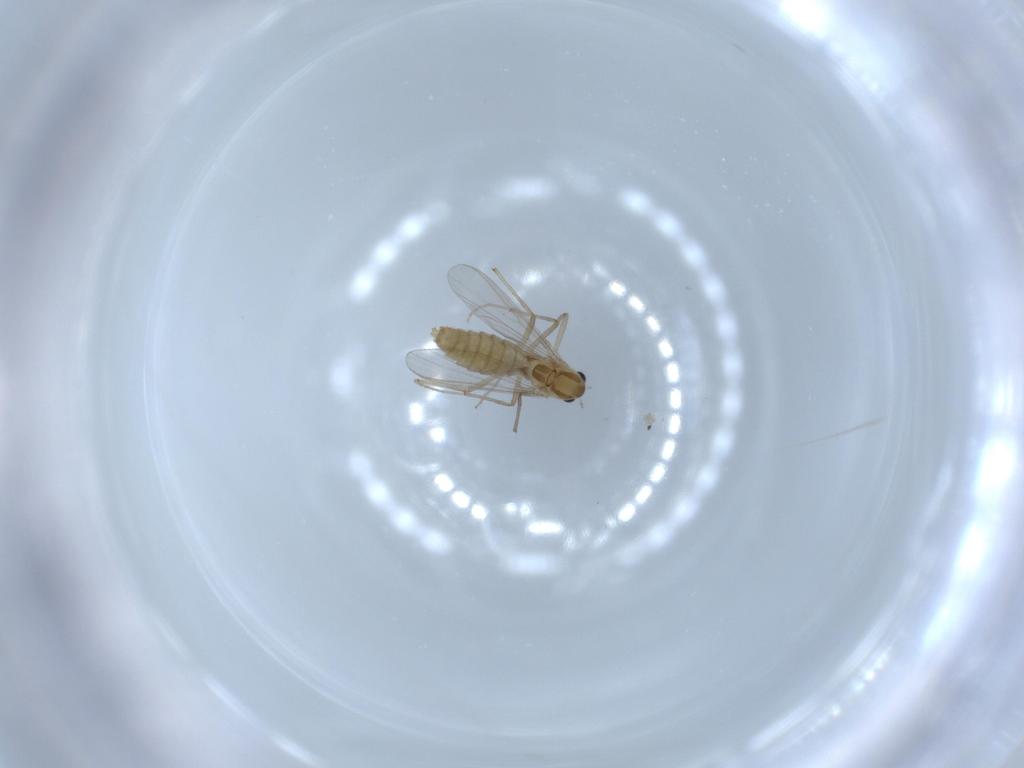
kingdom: Animalia
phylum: Arthropoda
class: Insecta
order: Diptera
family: Chironomidae
